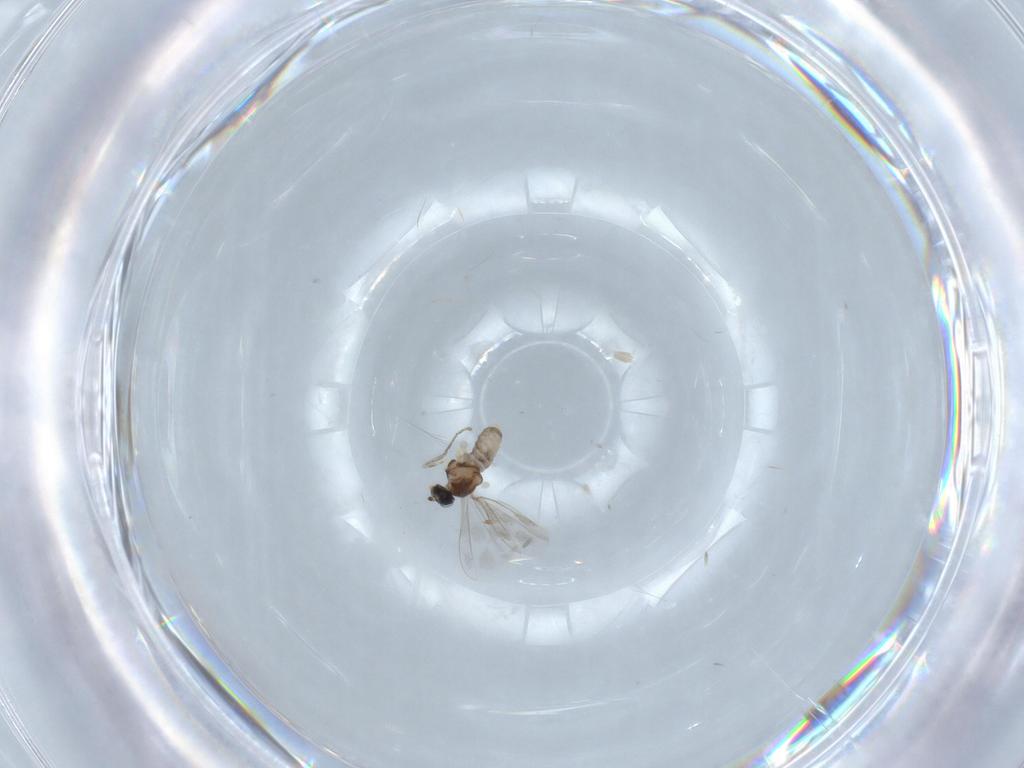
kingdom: Animalia
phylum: Arthropoda
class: Insecta
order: Diptera
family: Cecidomyiidae
